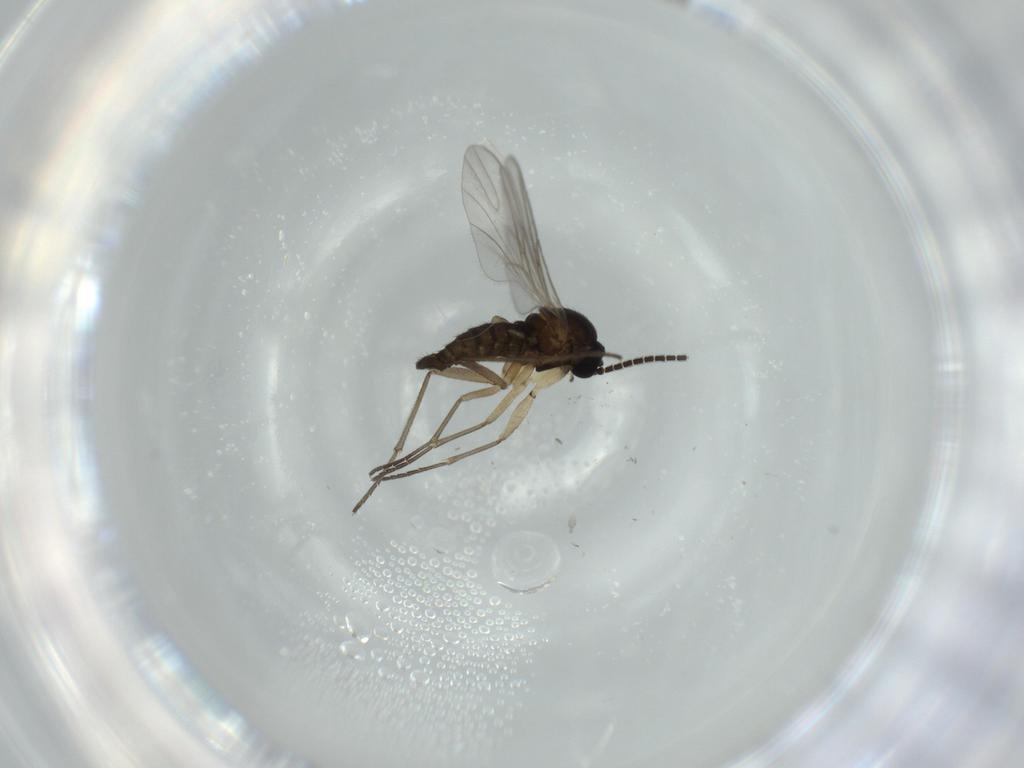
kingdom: Animalia
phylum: Arthropoda
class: Insecta
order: Diptera
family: Sciaridae
